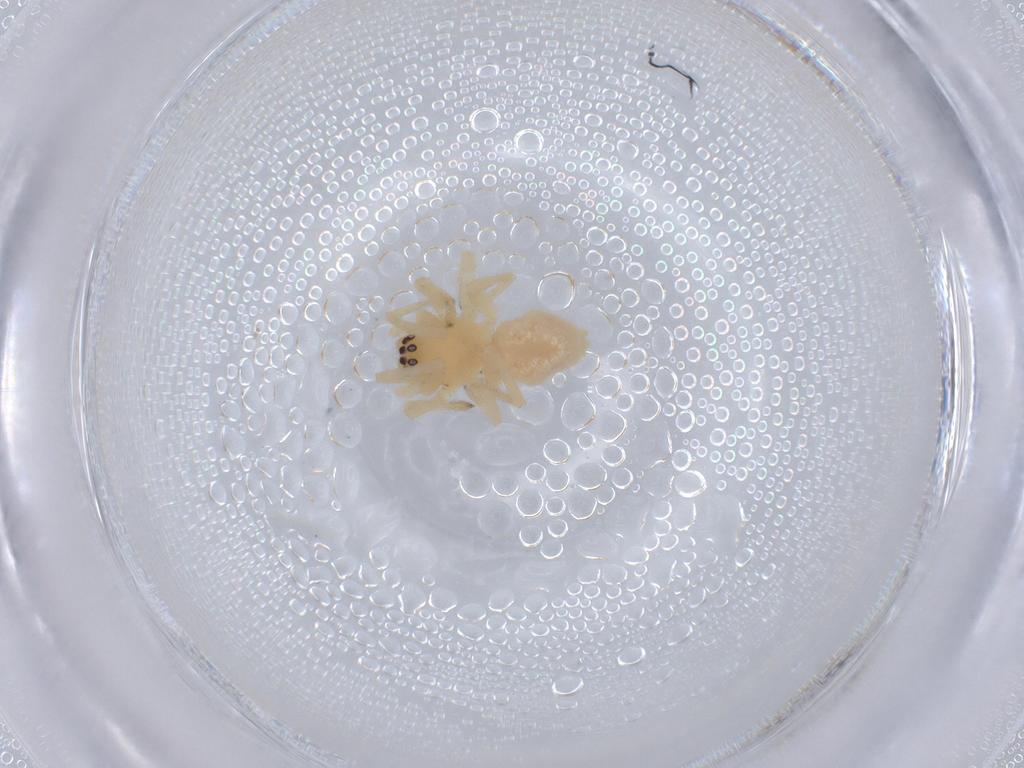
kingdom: Animalia
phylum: Arthropoda
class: Arachnida
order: Araneae
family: Cheiracanthiidae
